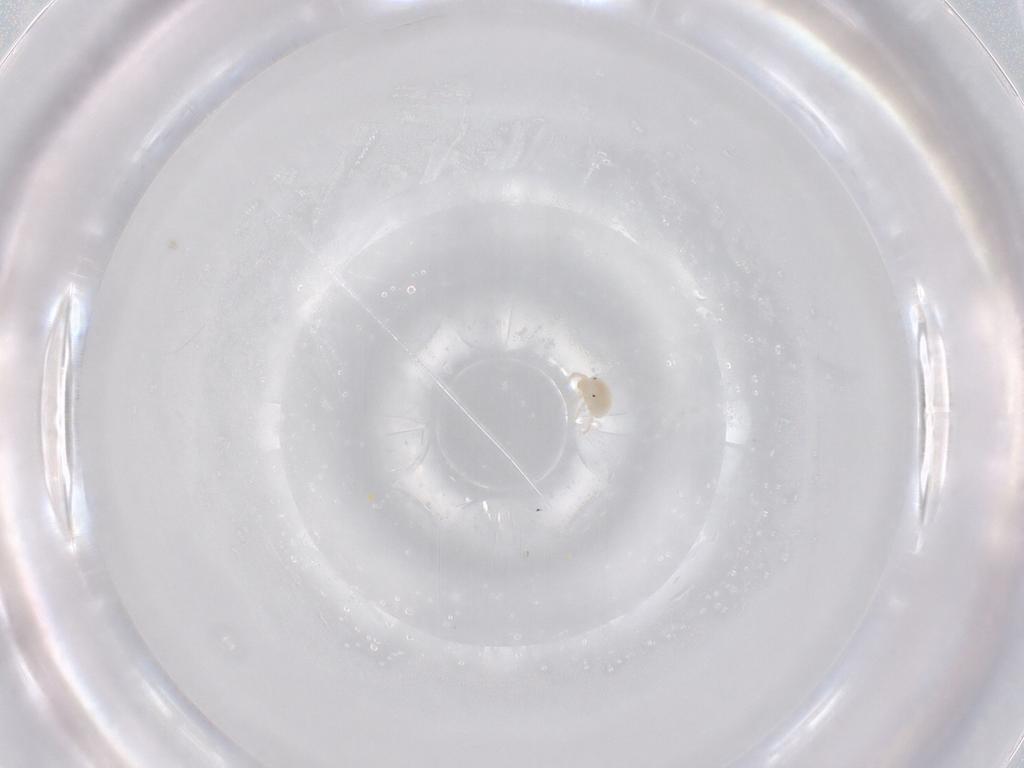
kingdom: Animalia
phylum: Arthropoda
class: Arachnida
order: Trombidiformes
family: Sperchontidae
